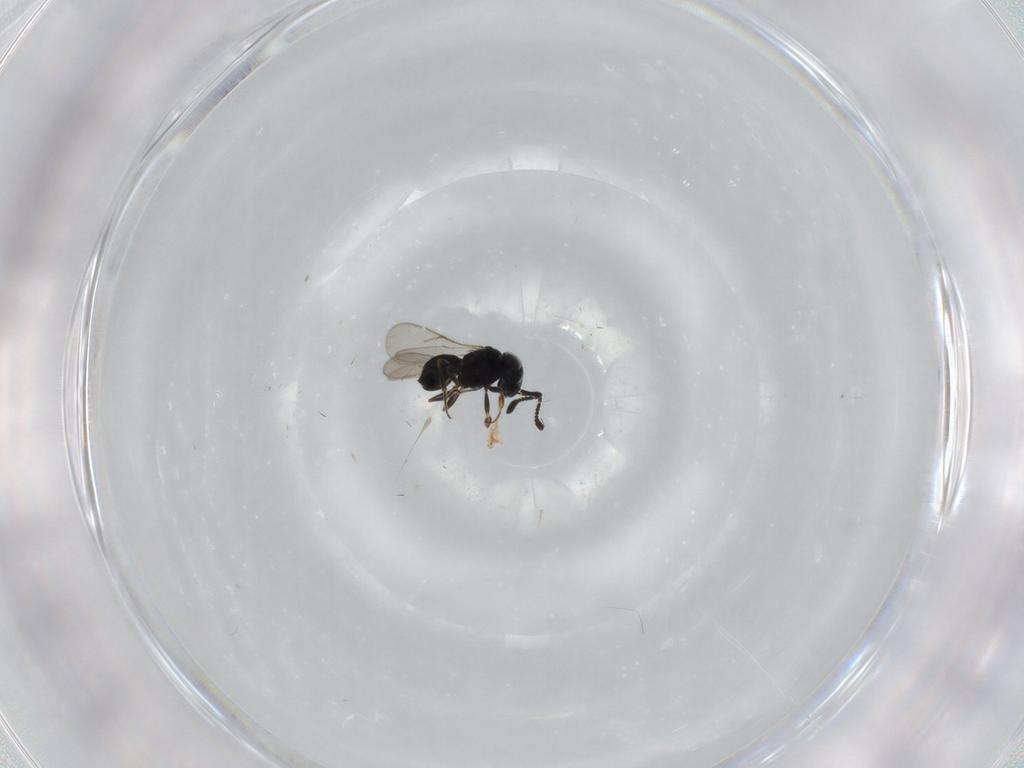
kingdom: Animalia
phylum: Arthropoda
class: Insecta
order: Hymenoptera
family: Scelionidae
